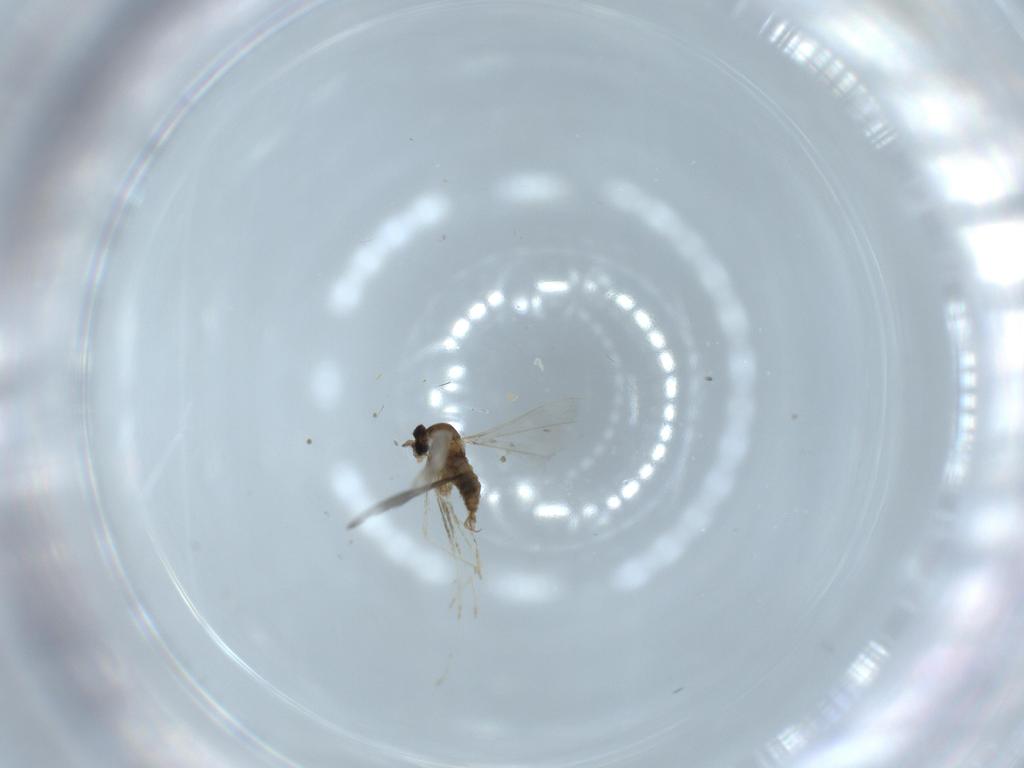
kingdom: Animalia
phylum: Arthropoda
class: Insecta
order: Diptera
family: Cecidomyiidae
